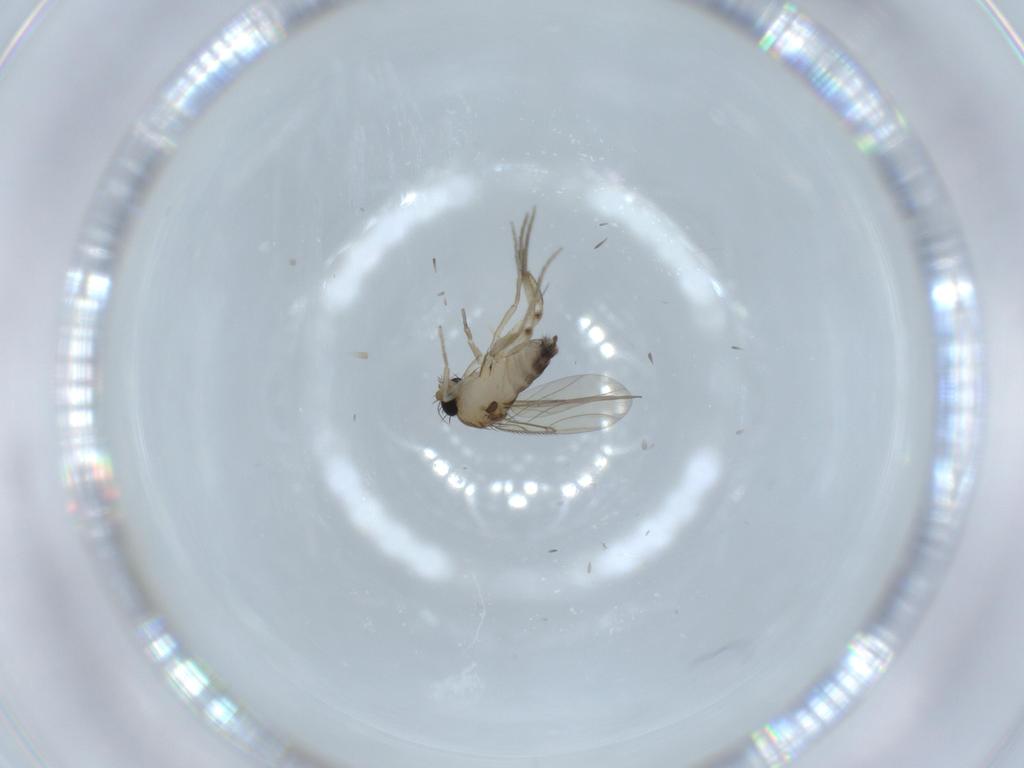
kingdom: Animalia
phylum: Arthropoda
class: Insecta
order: Diptera
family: Phoridae
